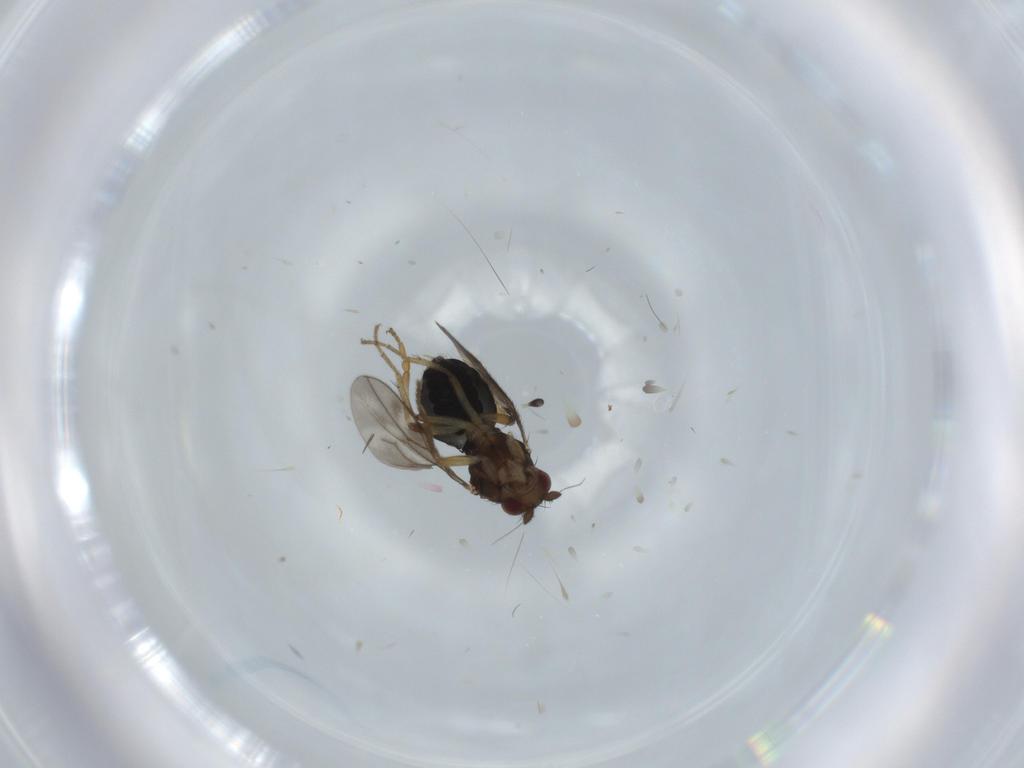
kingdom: Animalia
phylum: Arthropoda
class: Insecta
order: Diptera
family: Sphaeroceridae
